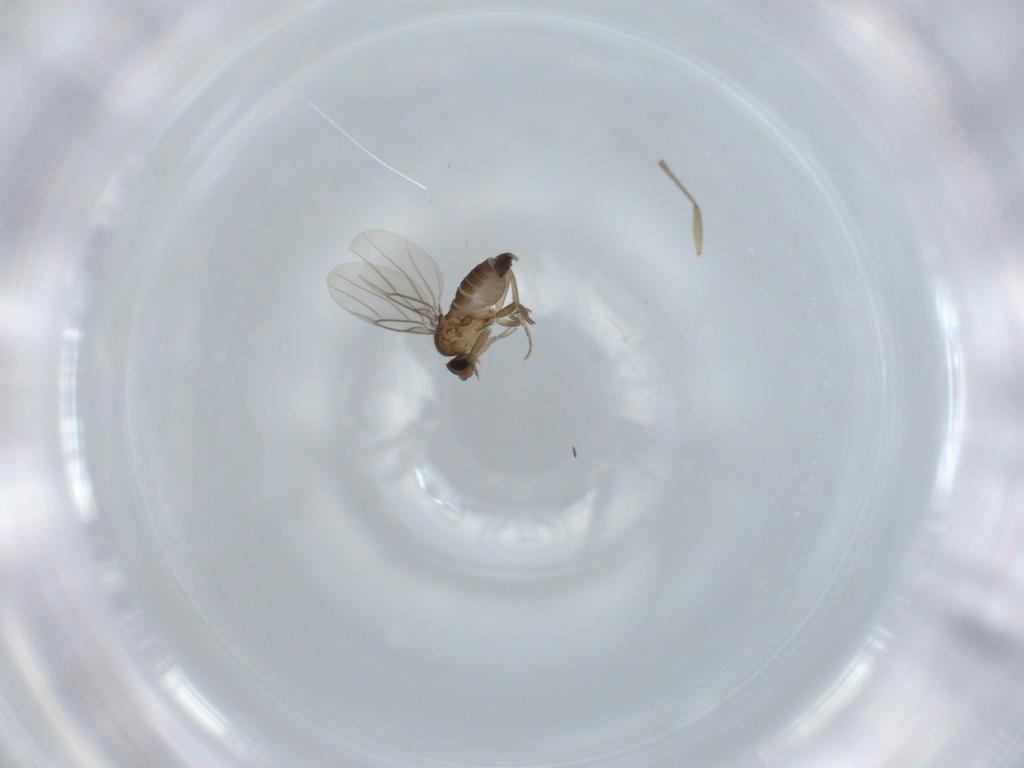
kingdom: Animalia
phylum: Arthropoda
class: Insecta
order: Diptera
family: Phoridae
